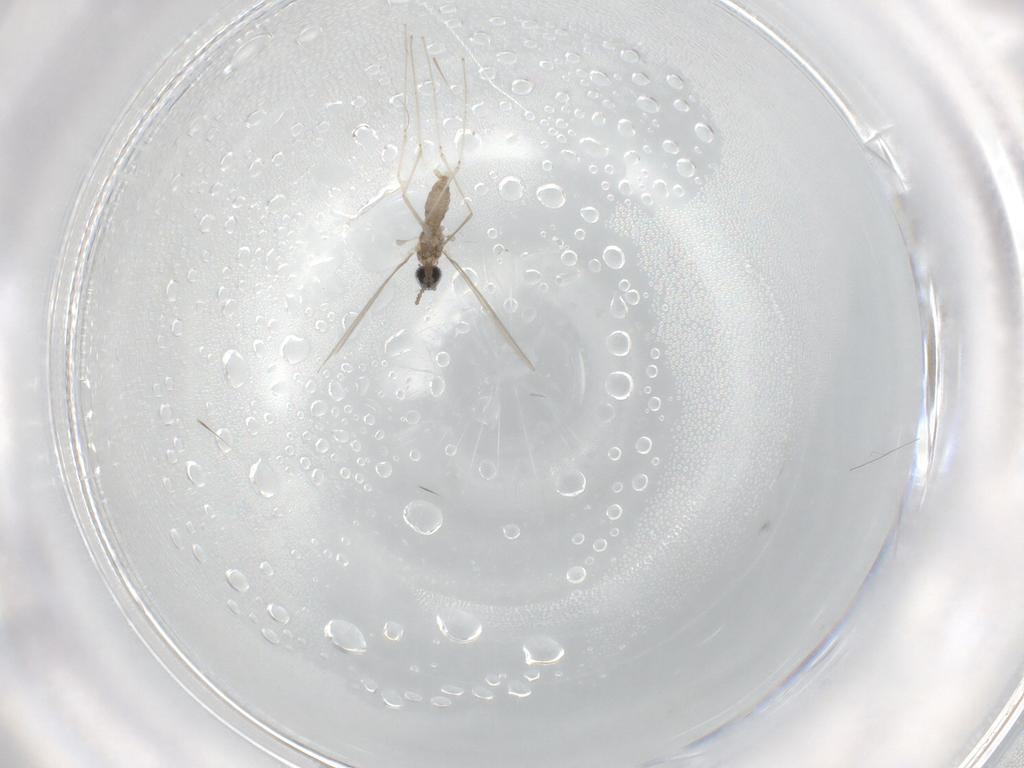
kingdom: Animalia
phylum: Arthropoda
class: Insecta
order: Diptera
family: Cecidomyiidae
